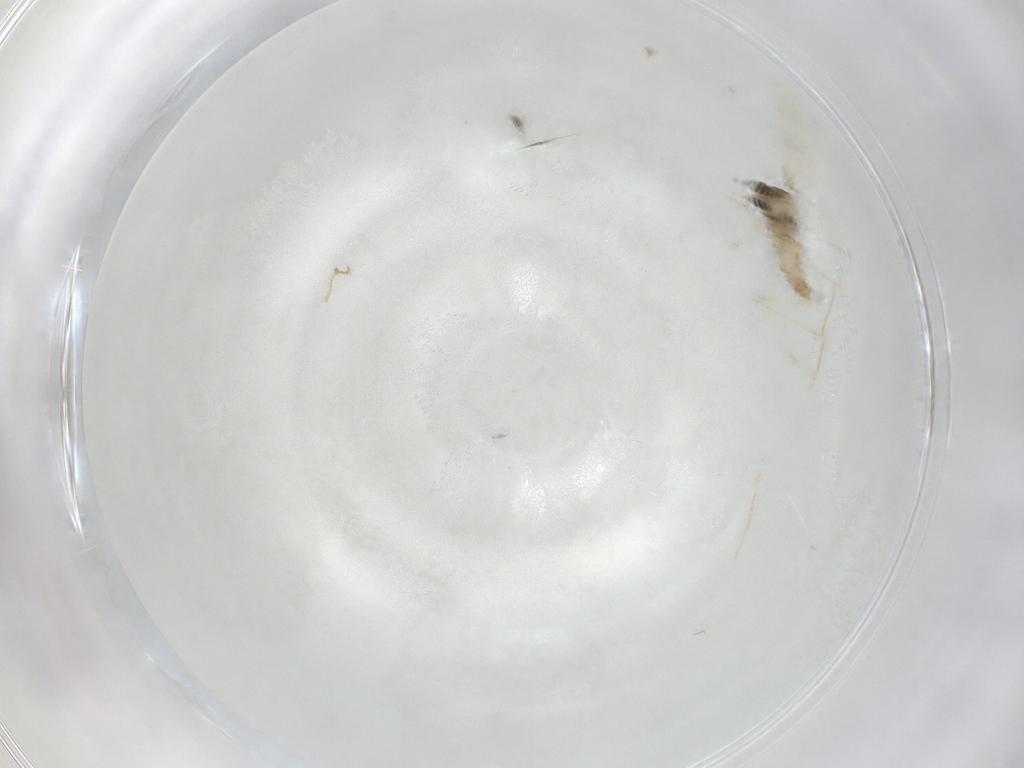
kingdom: Animalia
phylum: Arthropoda
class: Insecta
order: Diptera
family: Cecidomyiidae
